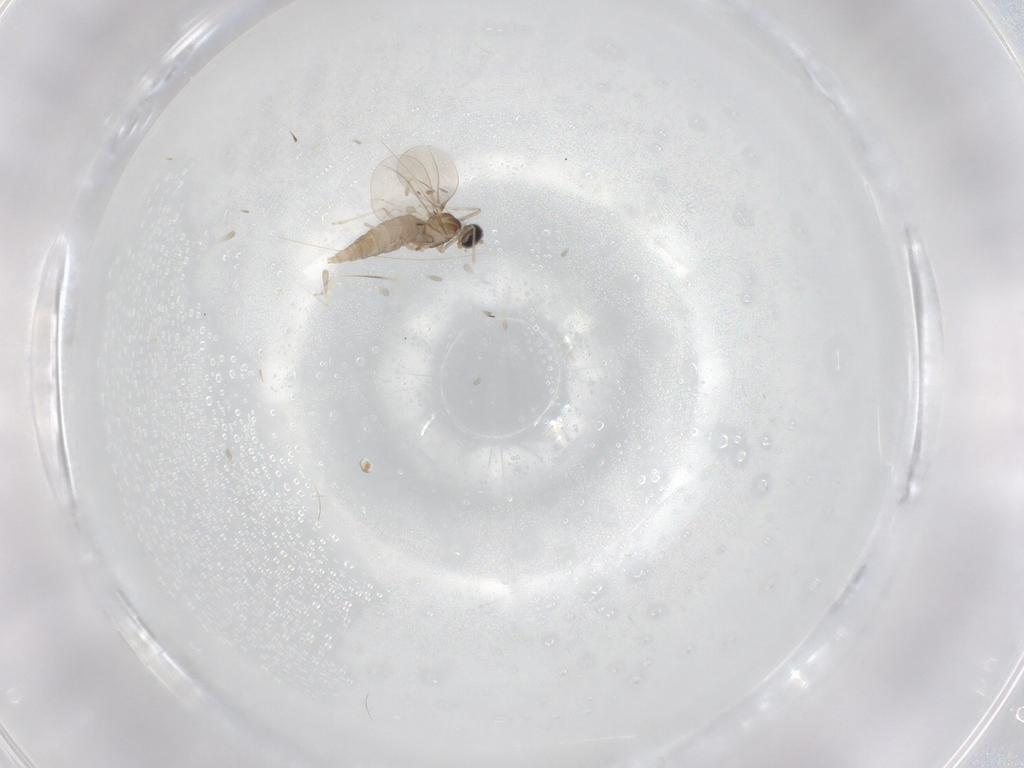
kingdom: Animalia
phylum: Arthropoda
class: Insecta
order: Diptera
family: Cecidomyiidae
